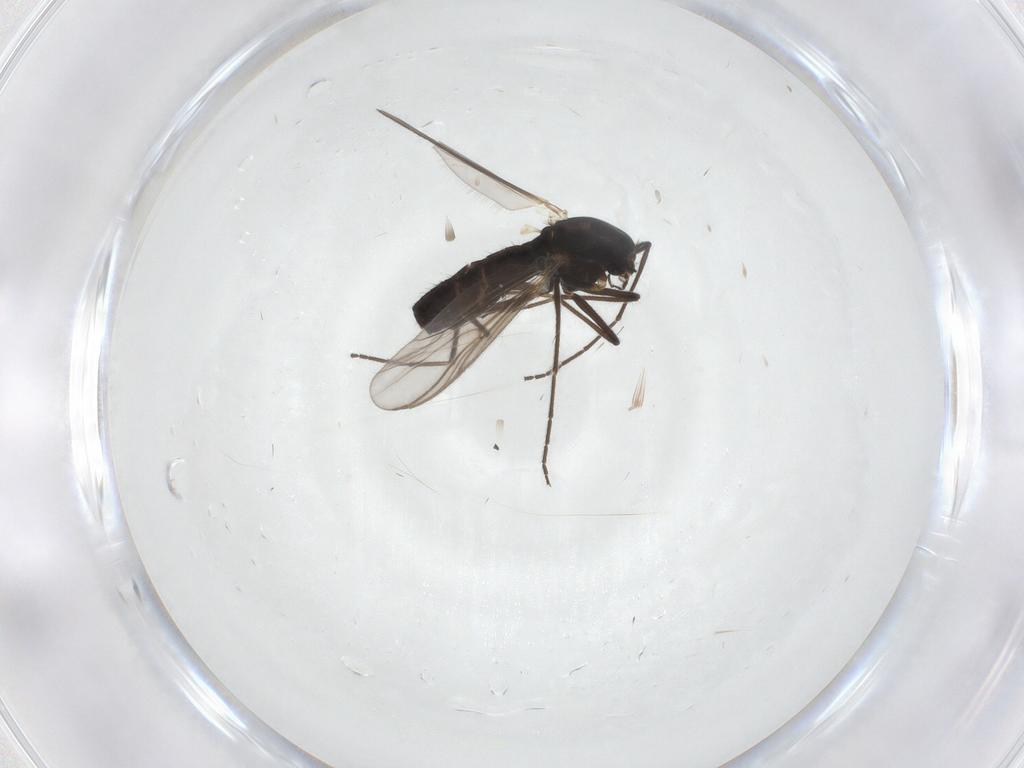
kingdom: Animalia
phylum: Arthropoda
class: Insecta
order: Diptera
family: Chironomidae
